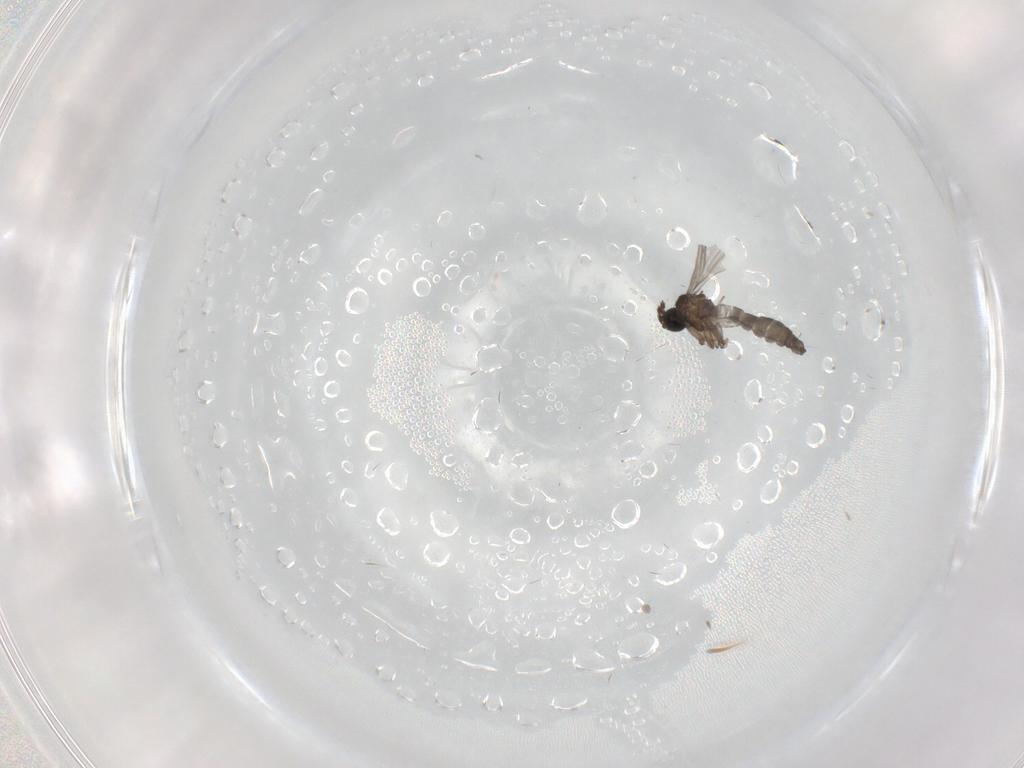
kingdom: Animalia
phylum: Arthropoda
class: Insecta
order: Diptera
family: Sciaridae
